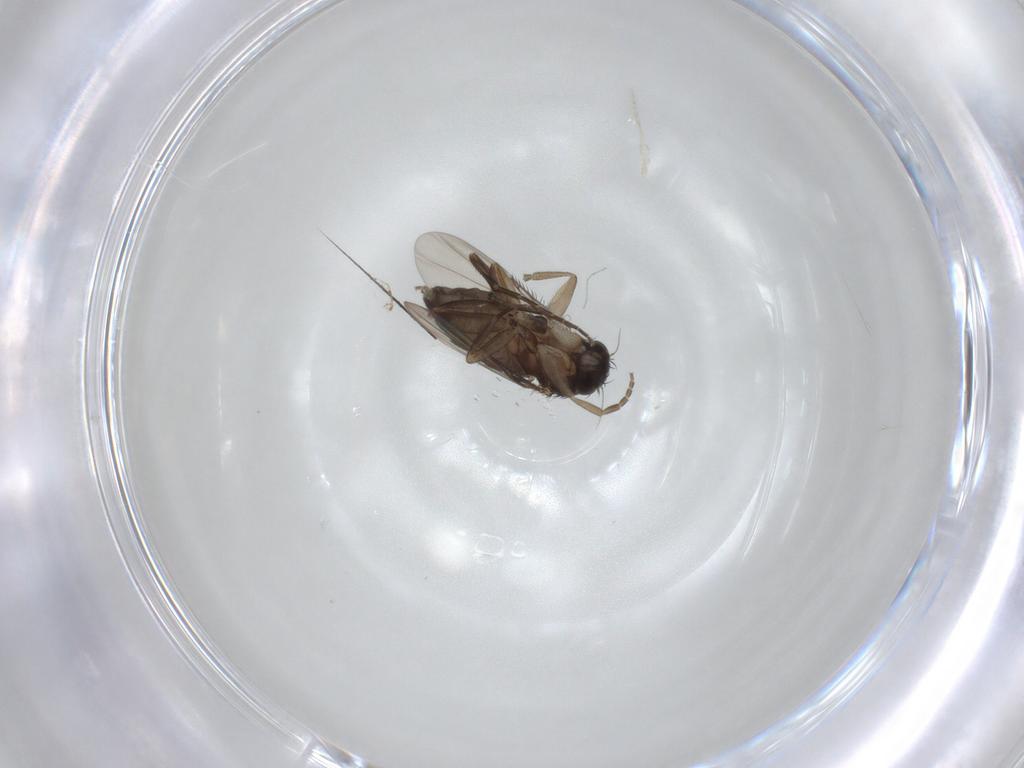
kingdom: Animalia
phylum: Arthropoda
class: Insecta
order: Diptera
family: Phoridae
